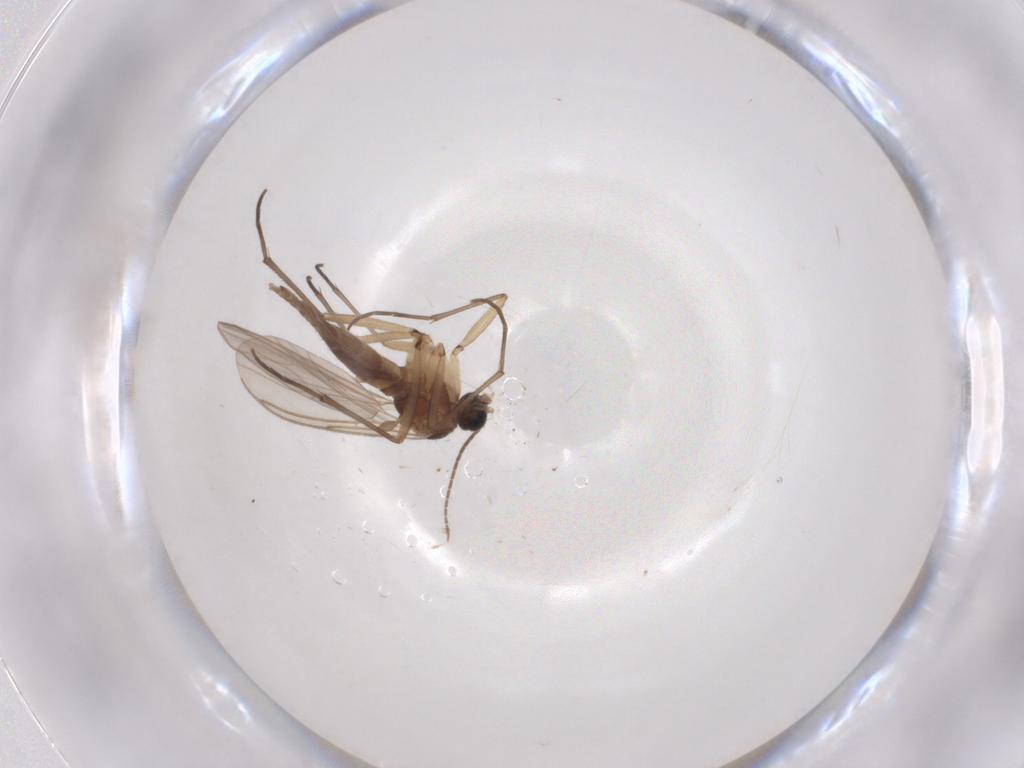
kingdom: Animalia
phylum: Arthropoda
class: Insecta
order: Diptera
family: Sciaridae
